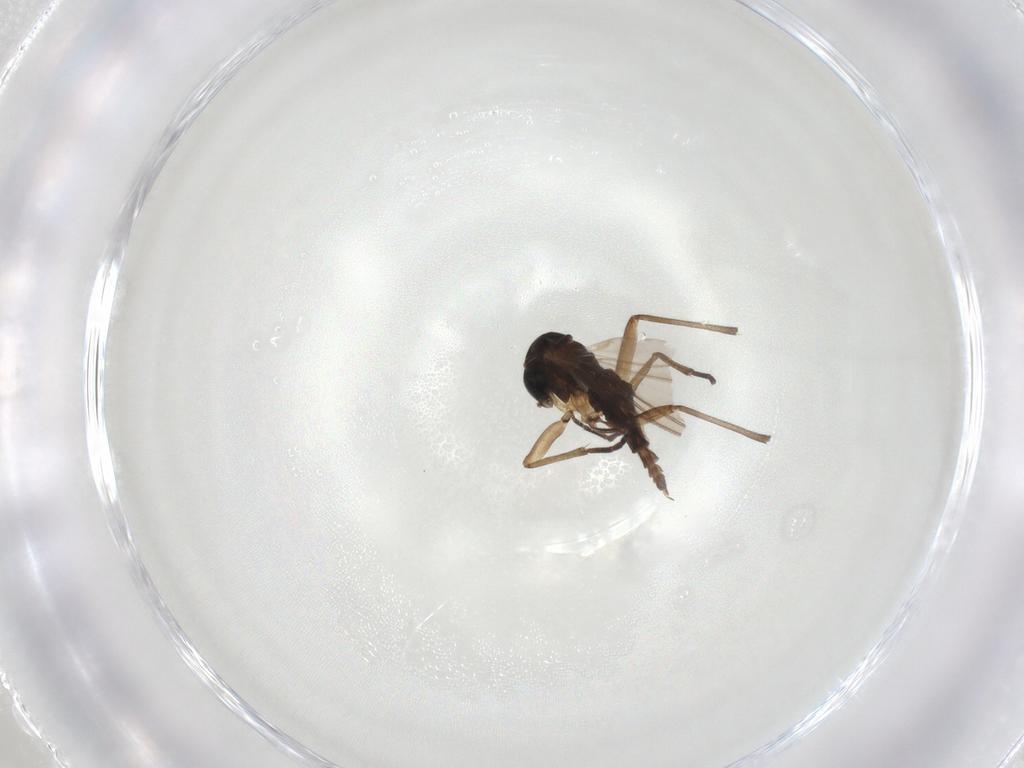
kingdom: Animalia
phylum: Arthropoda
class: Insecta
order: Diptera
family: Sciaridae
